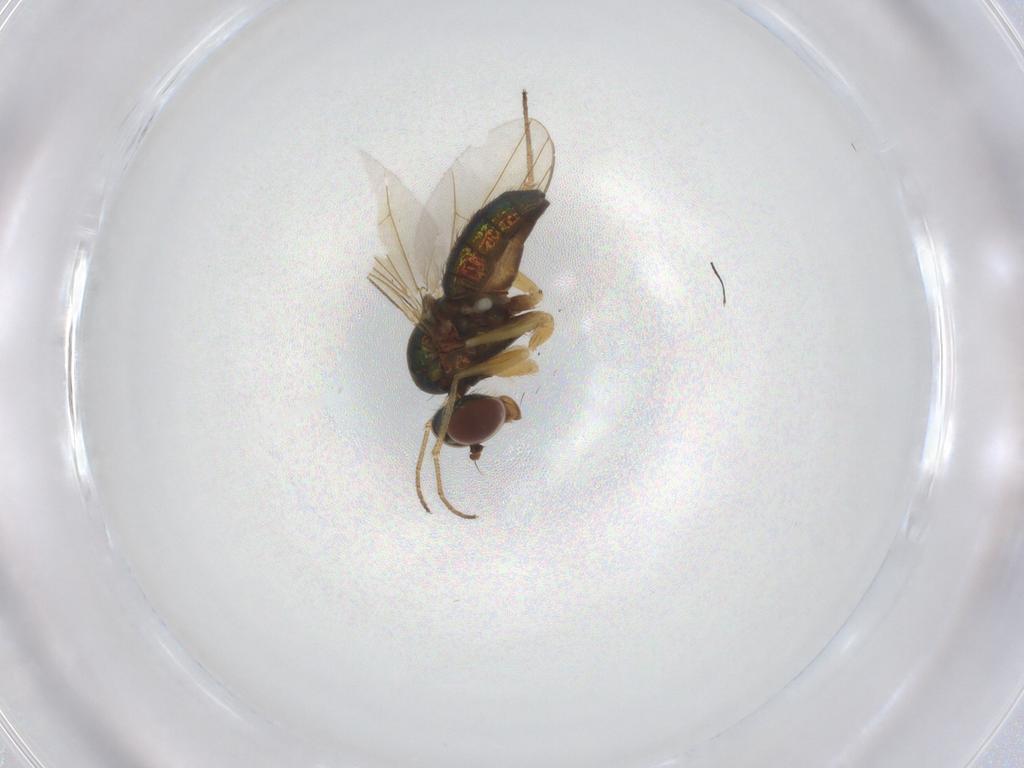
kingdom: Animalia
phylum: Arthropoda
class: Insecta
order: Diptera
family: Dolichopodidae
